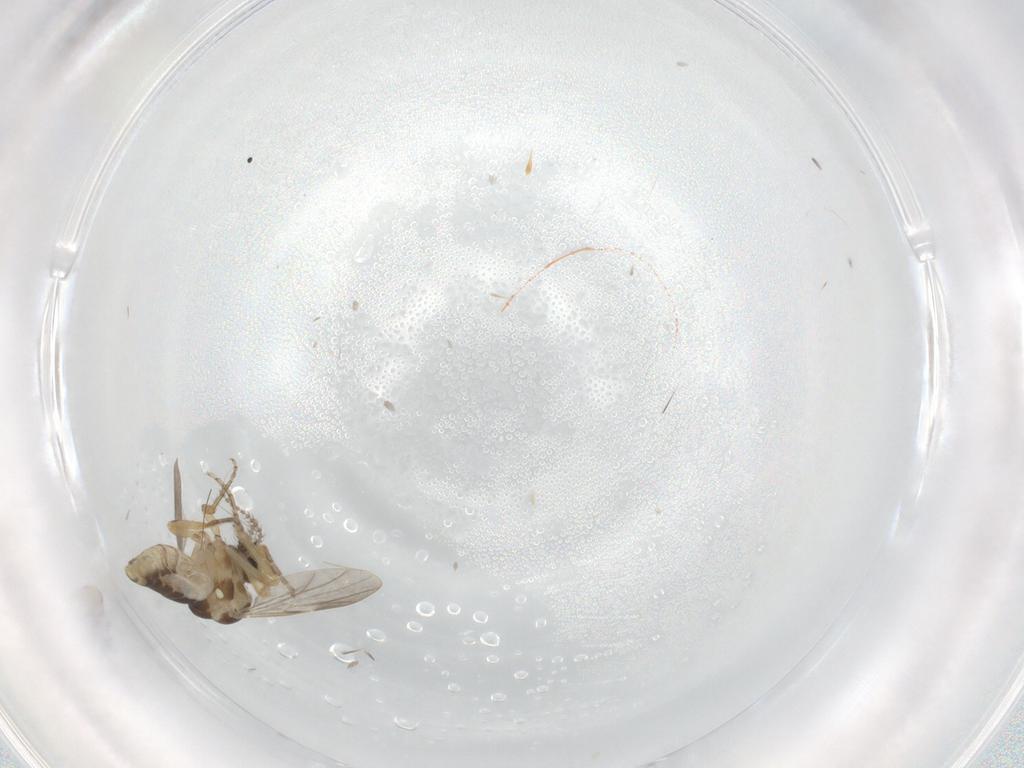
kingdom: Animalia
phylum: Arthropoda
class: Insecta
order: Diptera
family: Ceratopogonidae
